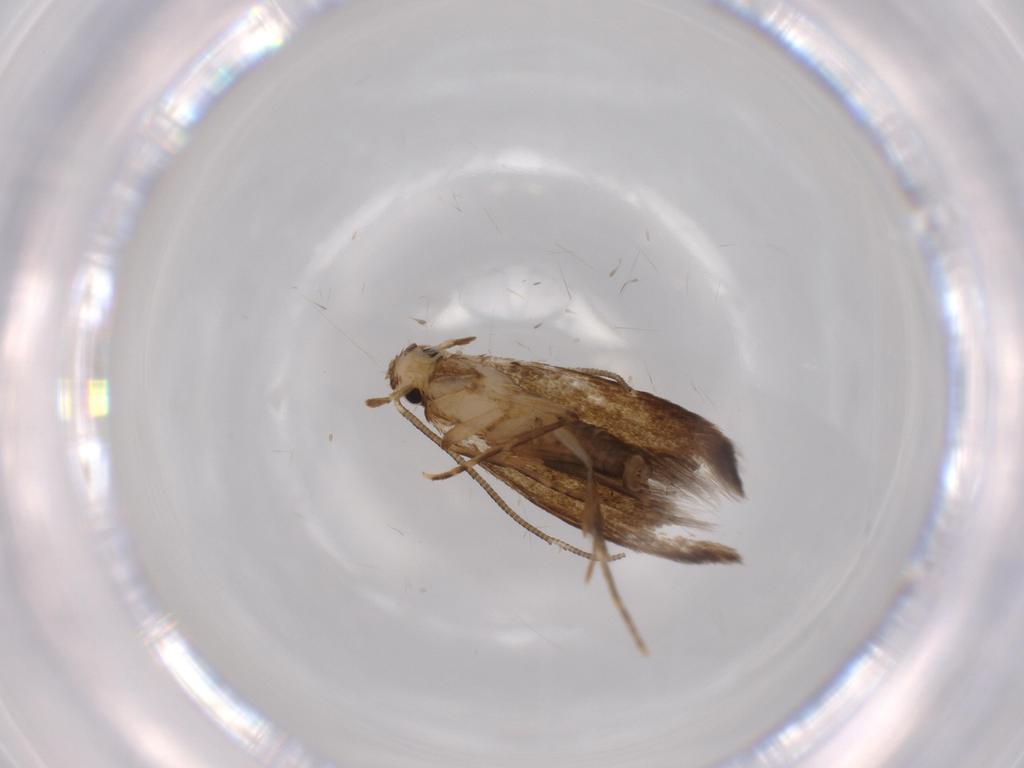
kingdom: Animalia
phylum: Arthropoda
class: Insecta
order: Lepidoptera
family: Tineidae
